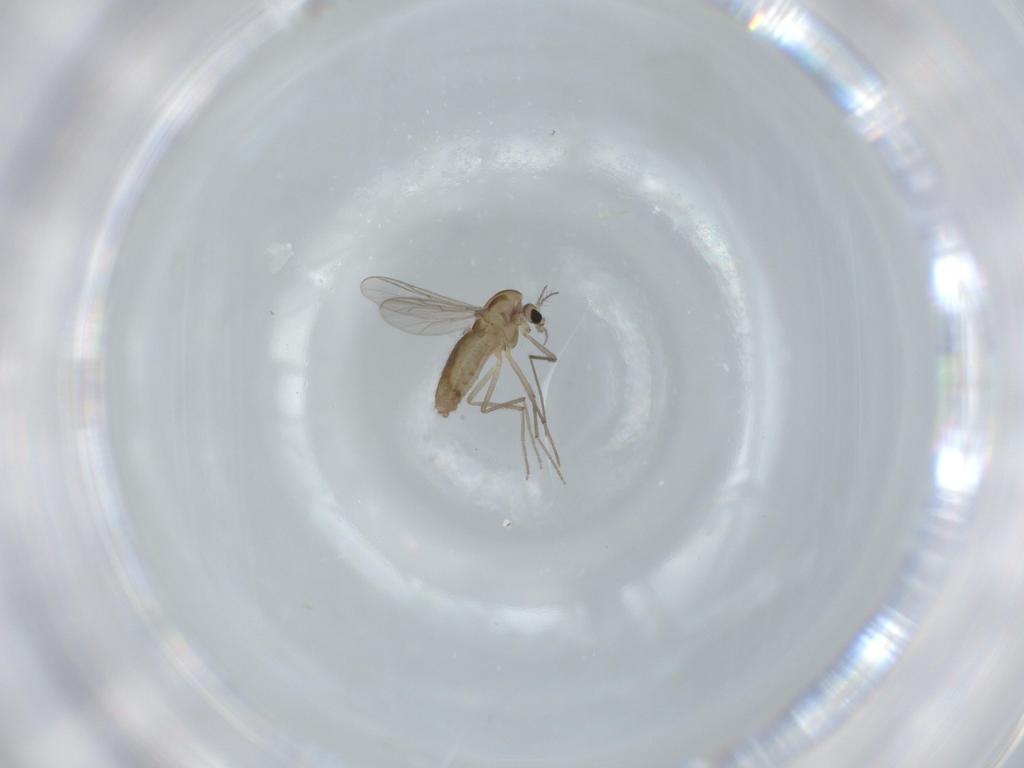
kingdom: Animalia
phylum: Arthropoda
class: Insecta
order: Diptera
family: Chironomidae
